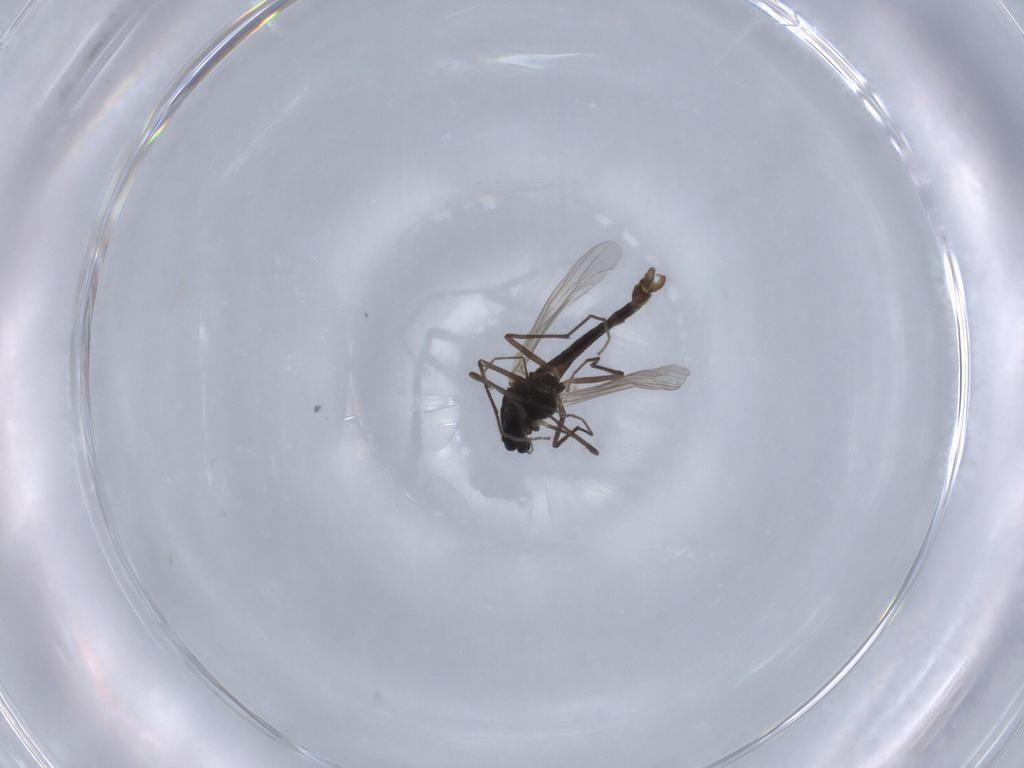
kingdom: Animalia
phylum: Arthropoda
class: Insecta
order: Diptera
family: Chironomidae
